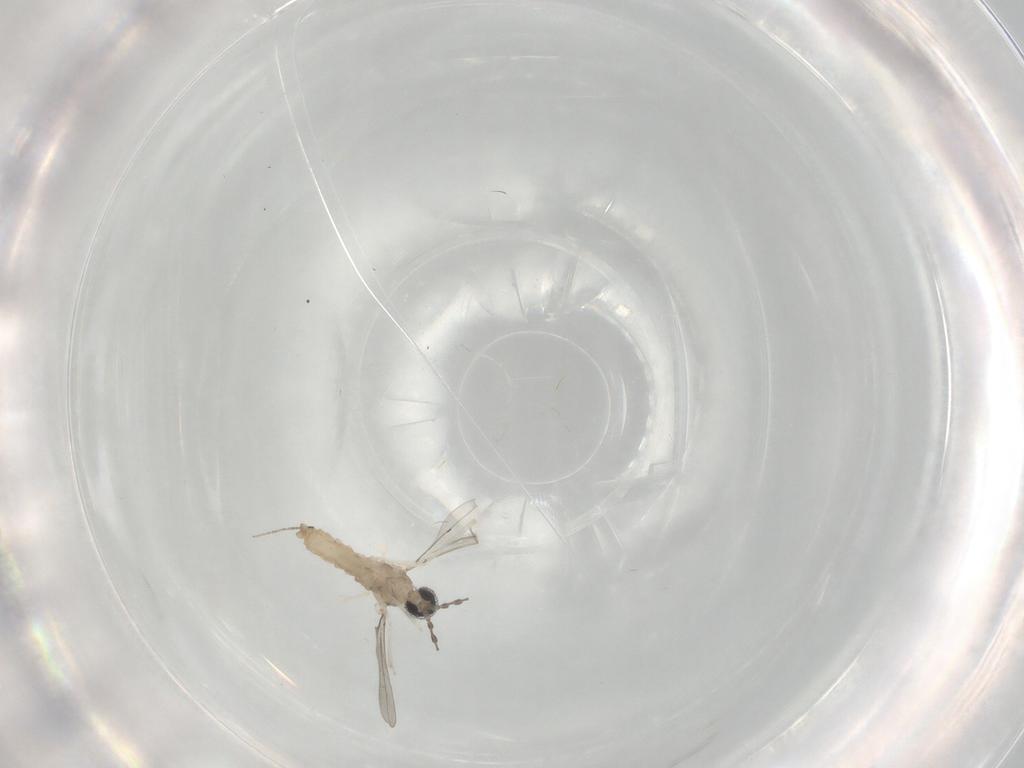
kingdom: Animalia
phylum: Arthropoda
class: Insecta
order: Diptera
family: Cecidomyiidae
